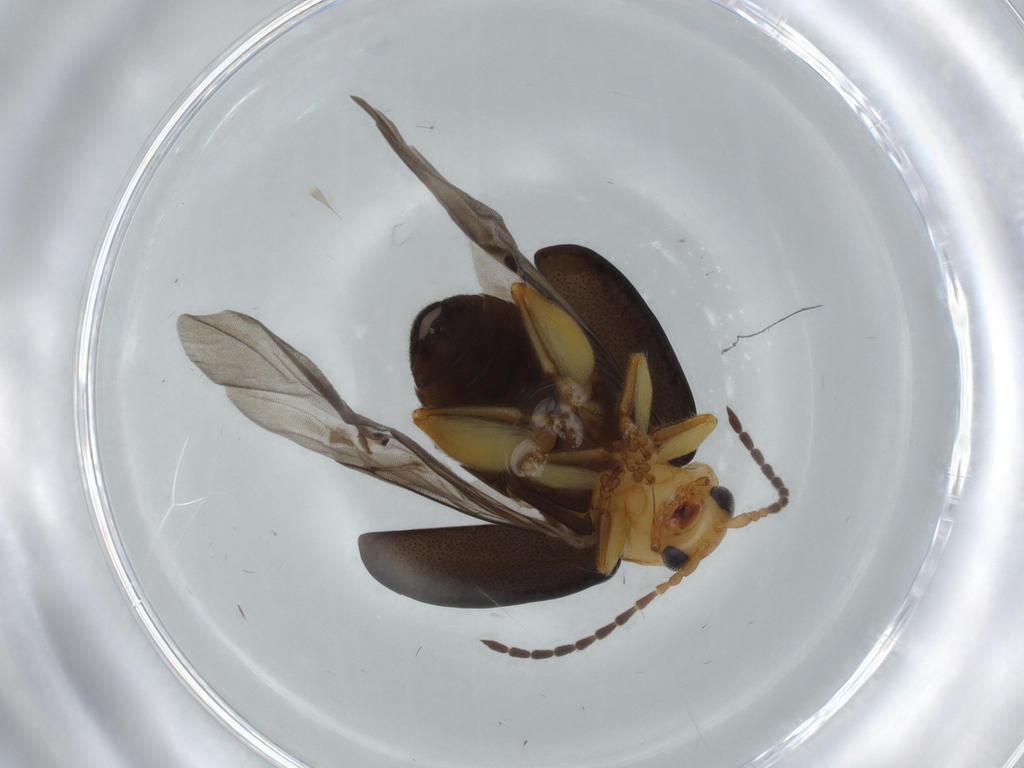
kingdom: Animalia
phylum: Arthropoda
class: Insecta
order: Coleoptera
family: Chrysomelidae
